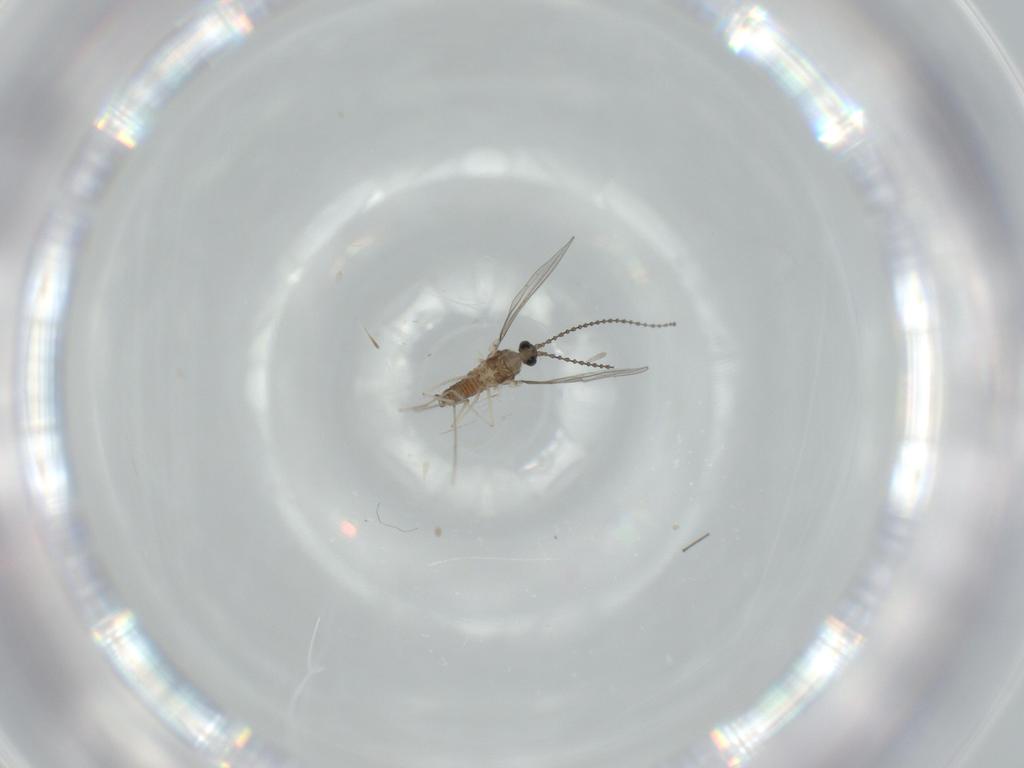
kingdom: Animalia
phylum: Arthropoda
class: Insecta
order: Diptera
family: Cecidomyiidae
